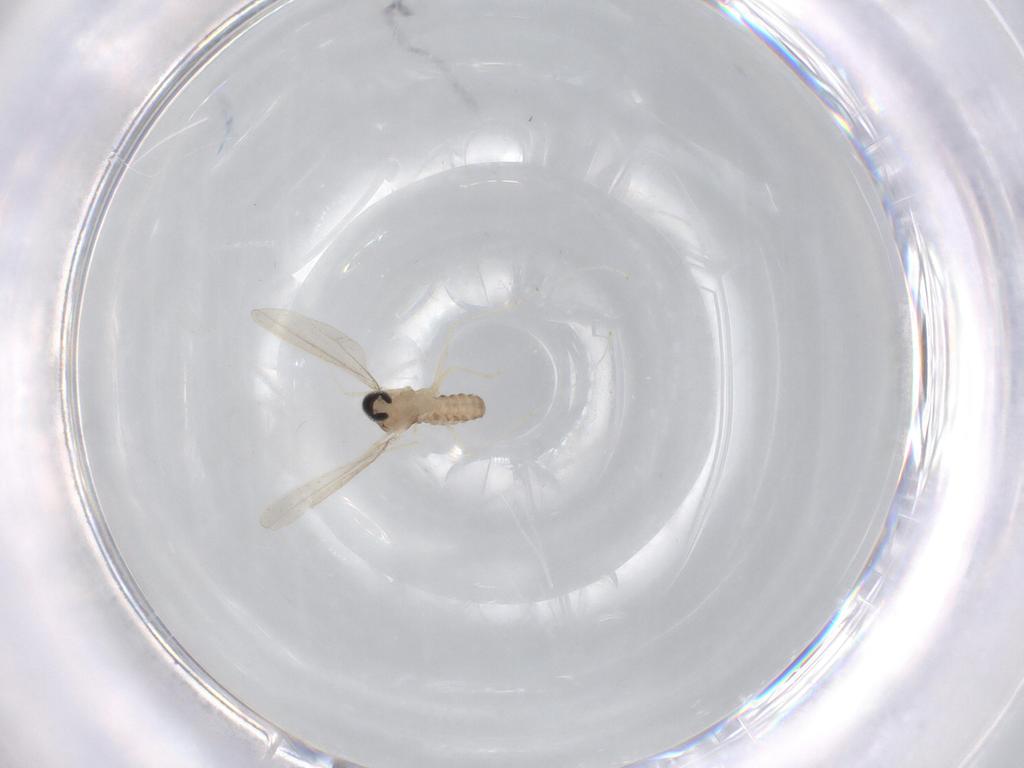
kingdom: Animalia
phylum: Arthropoda
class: Insecta
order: Diptera
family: Cecidomyiidae
